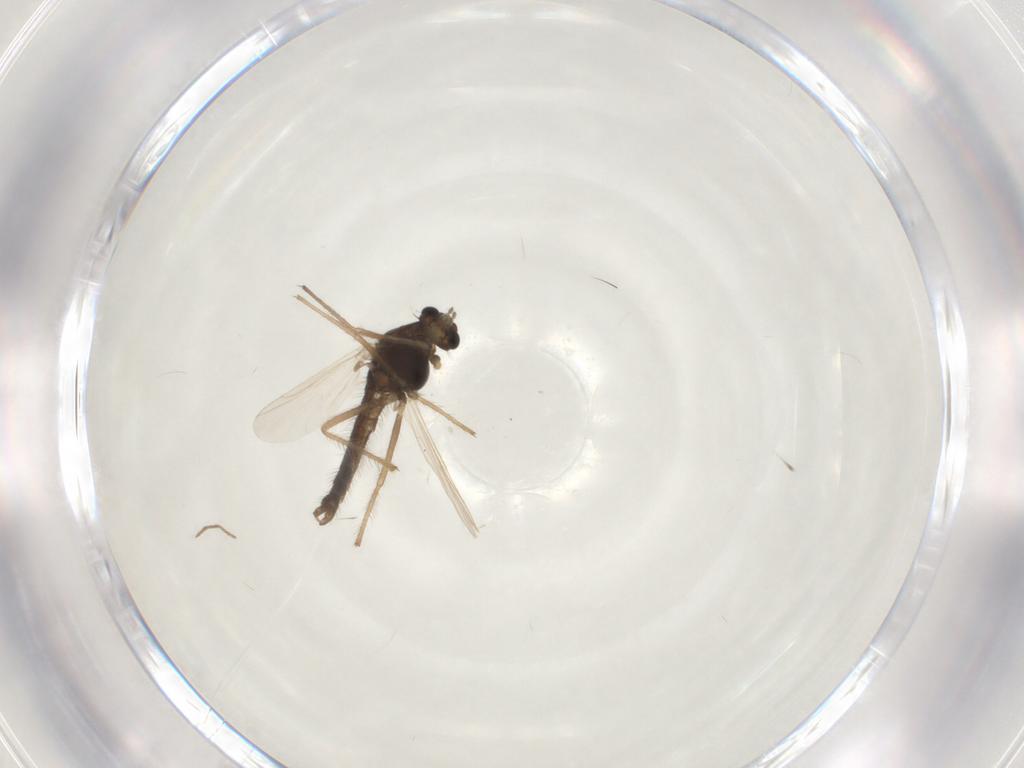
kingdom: Animalia
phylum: Arthropoda
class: Insecta
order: Diptera
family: Chironomidae
